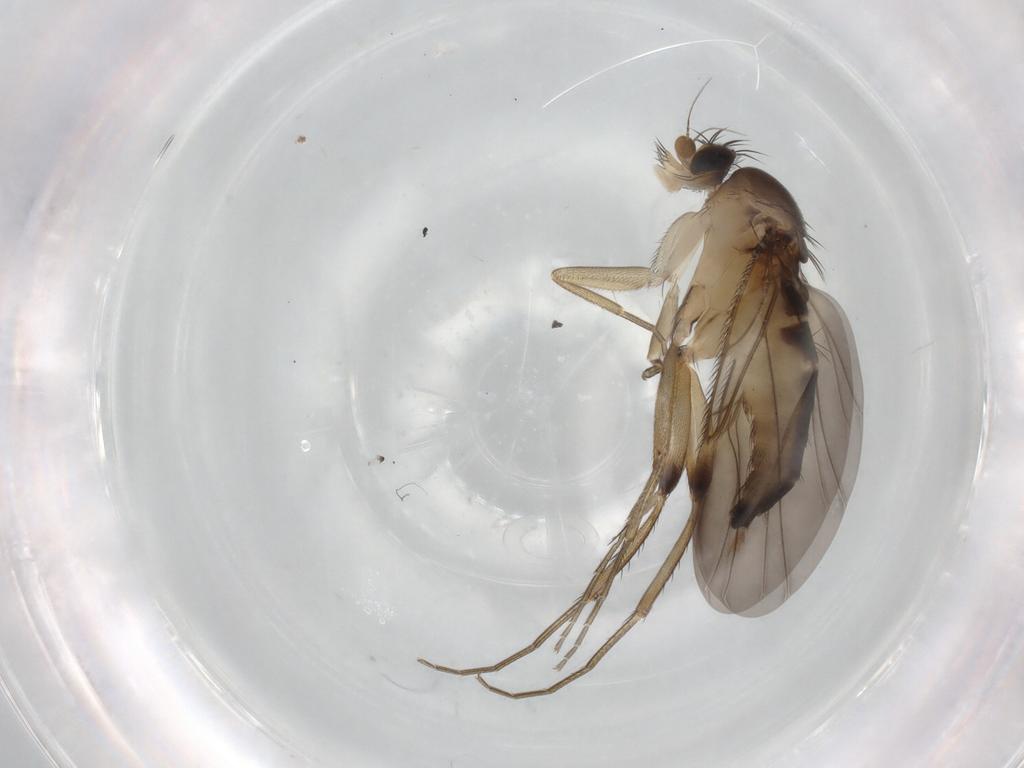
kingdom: Animalia
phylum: Arthropoda
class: Insecta
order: Diptera
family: Phoridae
